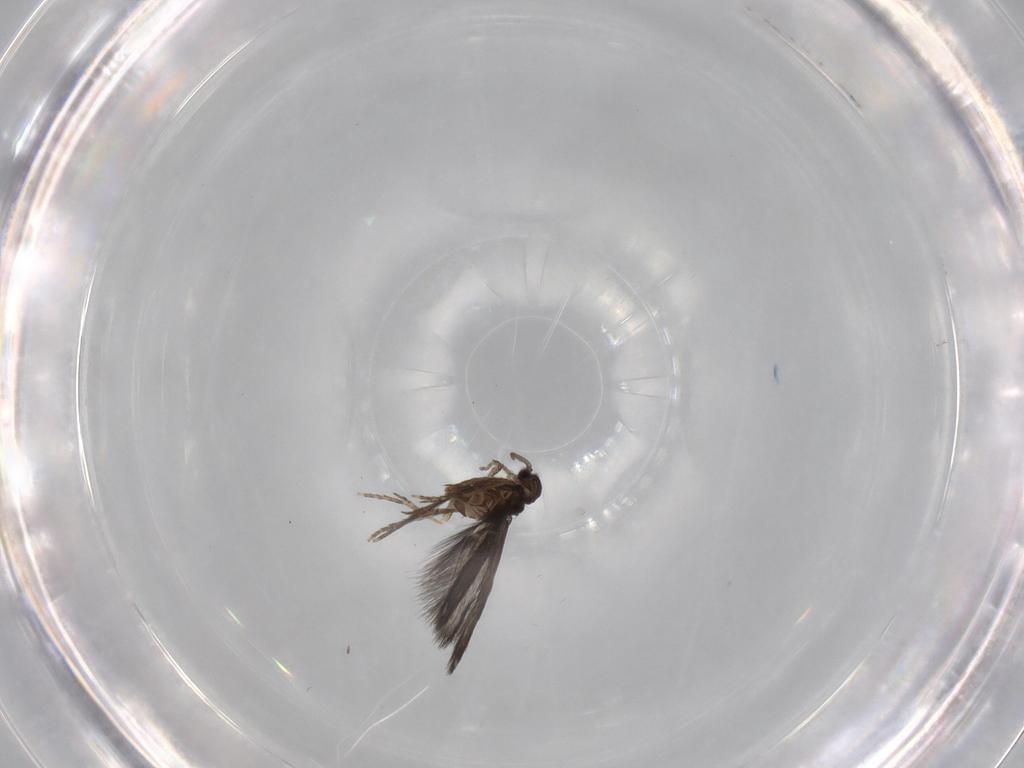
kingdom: Animalia
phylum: Arthropoda
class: Insecta
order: Trichoptera
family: Hydroptilidae
